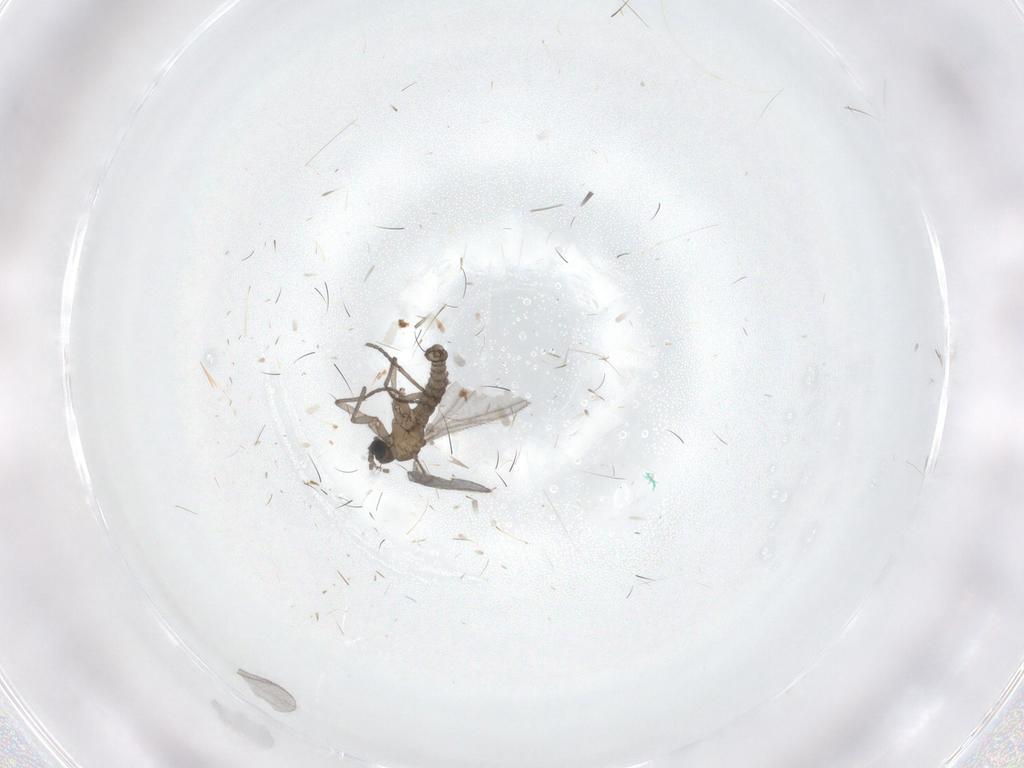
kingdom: Animalia
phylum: Arthropoda
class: Insecta
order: Diptera
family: Sciaridae
